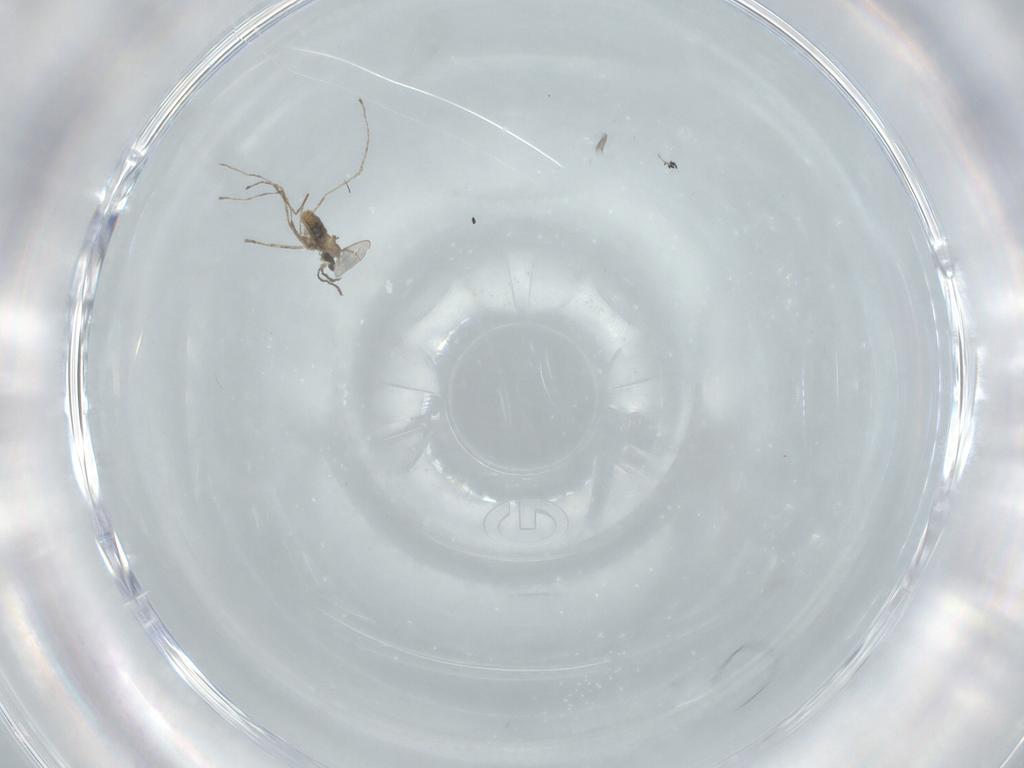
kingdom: Animalia
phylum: Arthropoda
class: Insecta
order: Diptera
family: Cecidomyiidae
